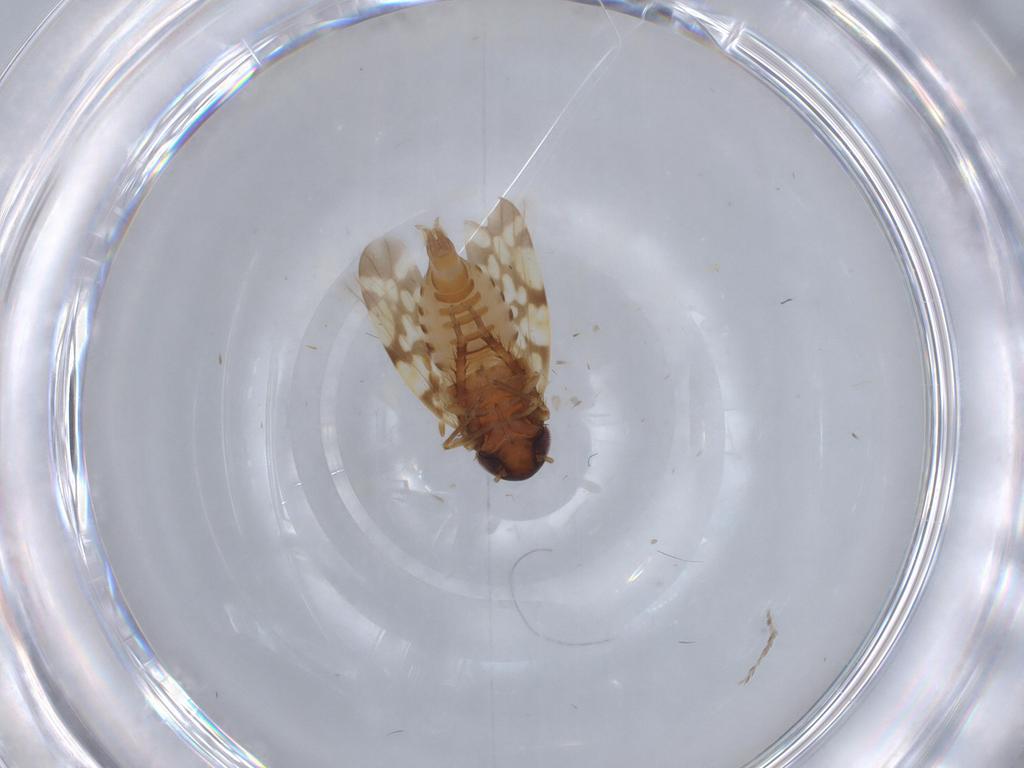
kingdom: Animalia
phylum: Arthropoda
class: Insecta
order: Hemiptera
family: Cicadellidae
